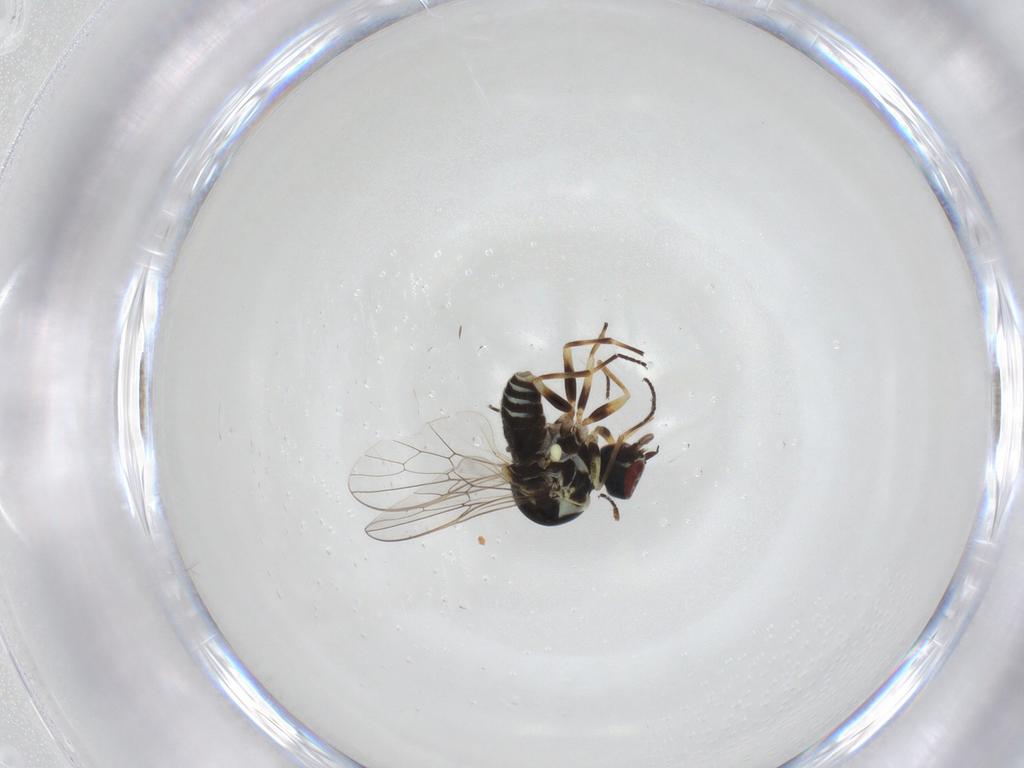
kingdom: Animalia
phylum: Arthropoda
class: Insecta
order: Diptera
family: Bombyliidae
